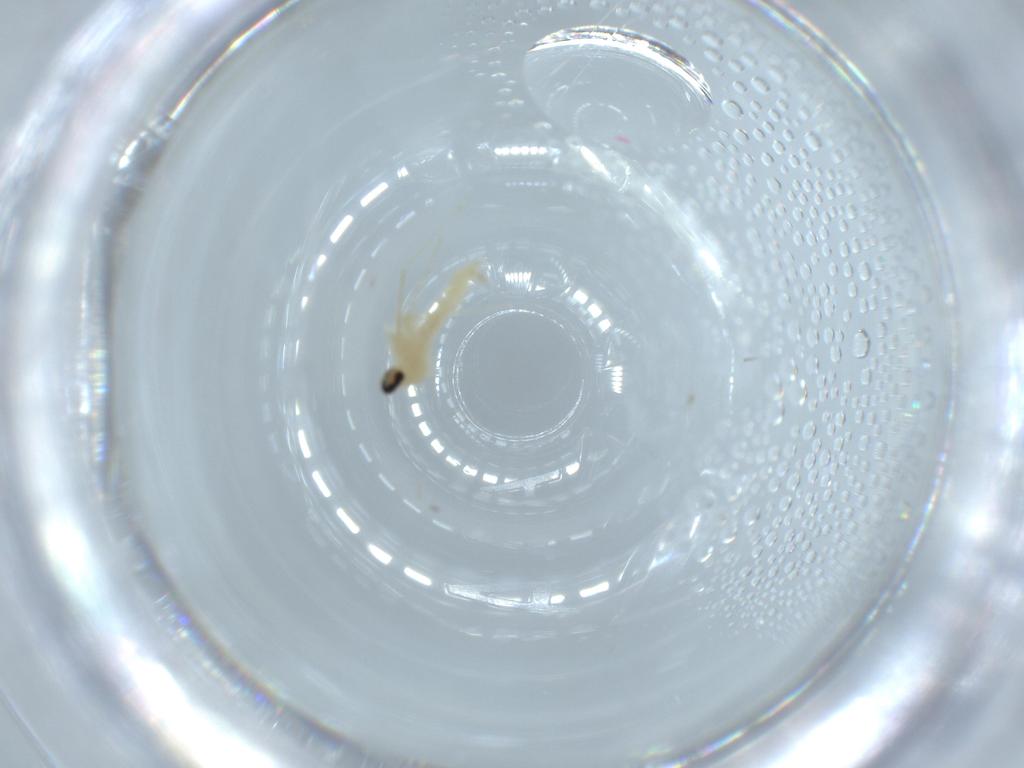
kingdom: Animalia
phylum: Arthropoda
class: Insecta
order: Diptera
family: Cecidomyiidae
